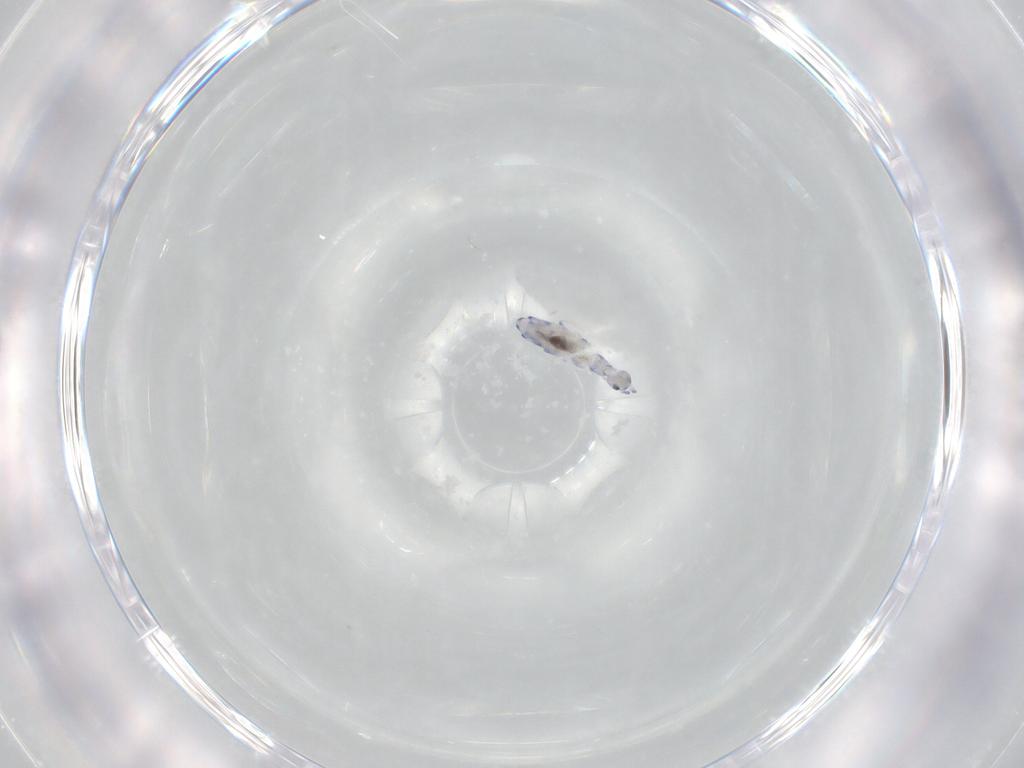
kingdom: Animalia
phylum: Arthropoda
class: Collembola
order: Entomobryomorpha
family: Entomobryidae
